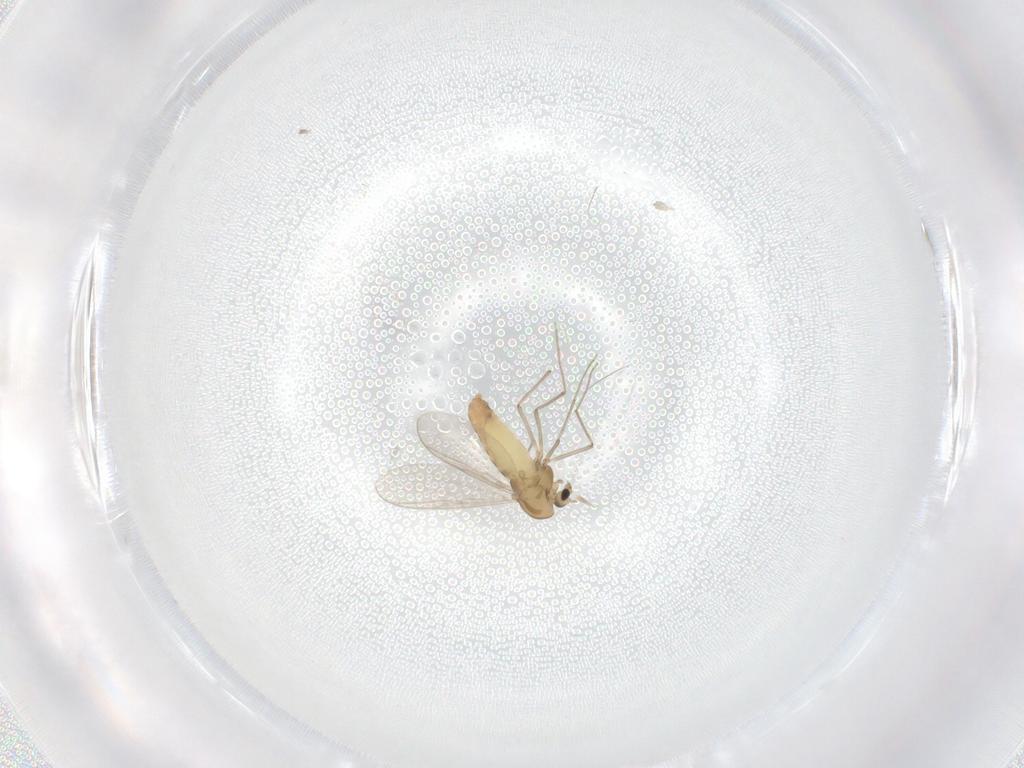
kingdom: Animalia
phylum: Arthropoda
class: Insecta
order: Diptera
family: Chironomidae
